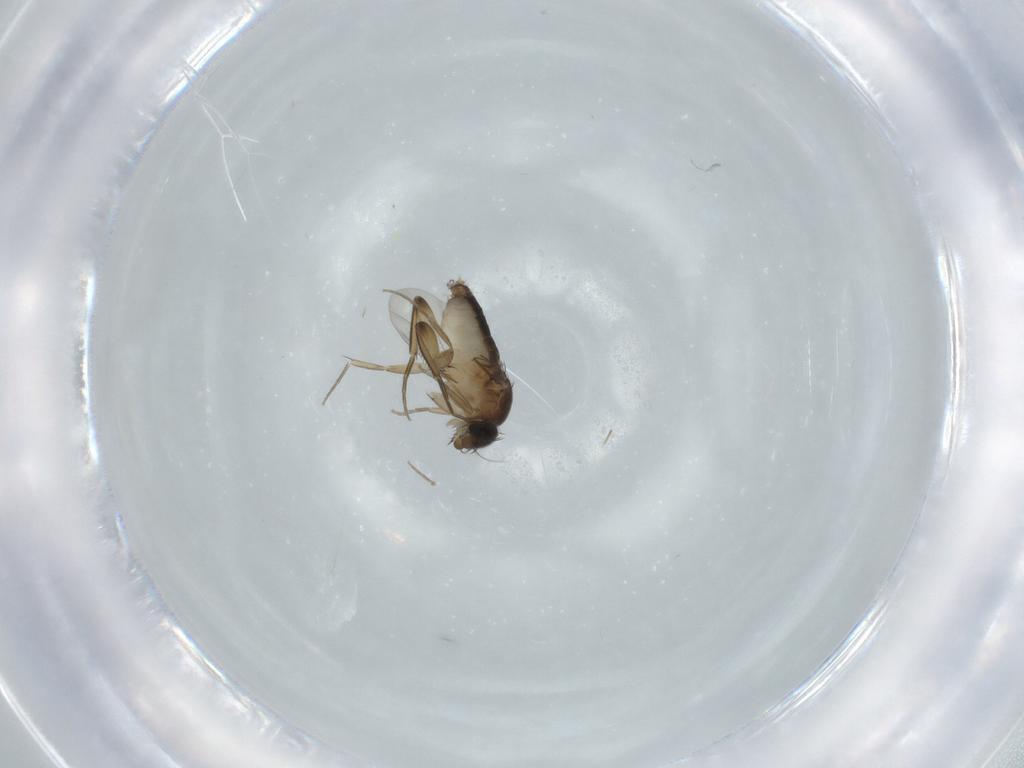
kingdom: Animalia
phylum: Arthropoda
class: Insecta
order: Diptera
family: Phoridae
